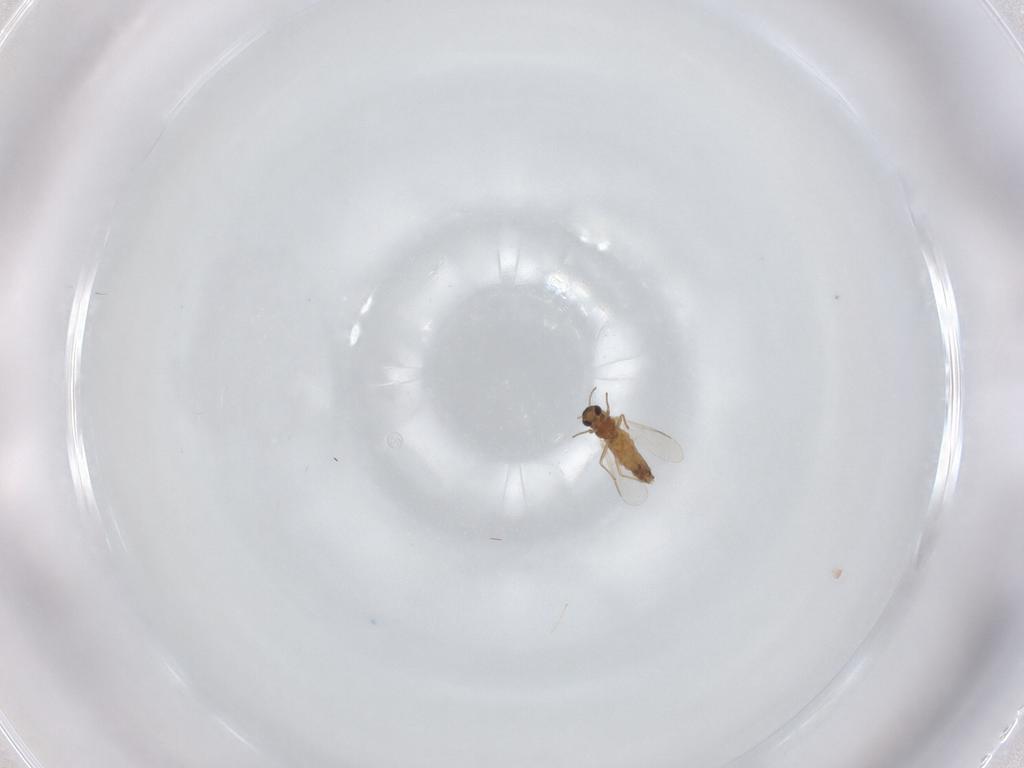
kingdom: Animalia
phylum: Arthropoda
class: Insecta
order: Diptera
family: Chironomidae
